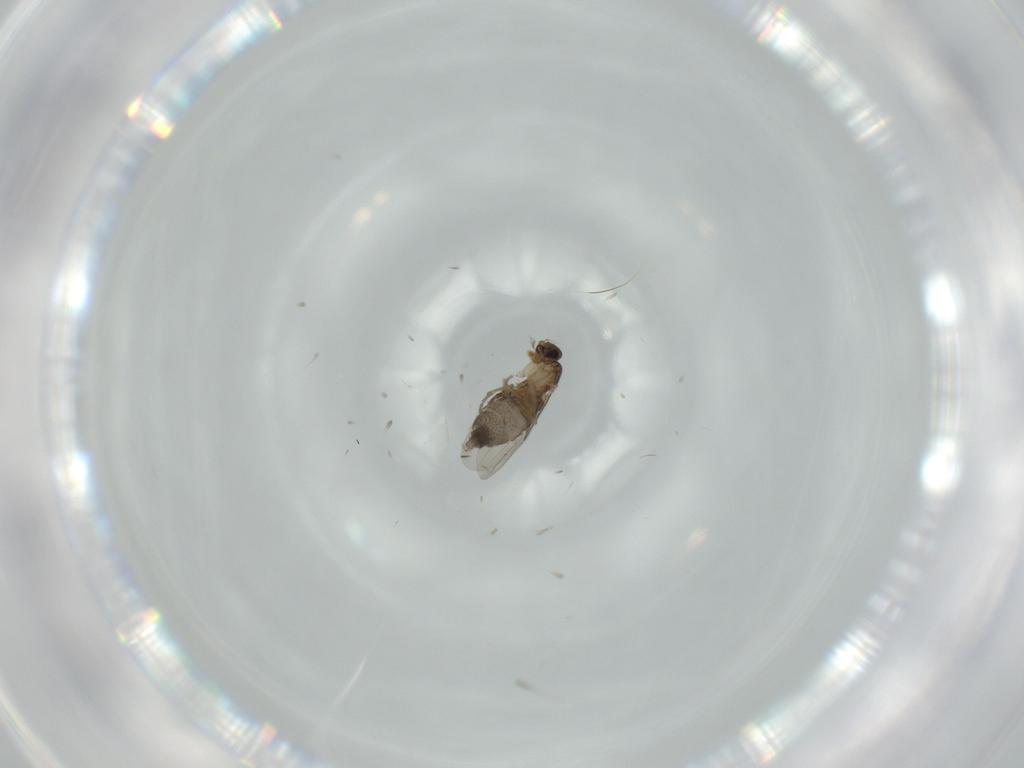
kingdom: Animalia
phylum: Arthropoda
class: Insecta
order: Diptera
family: Phoridae
